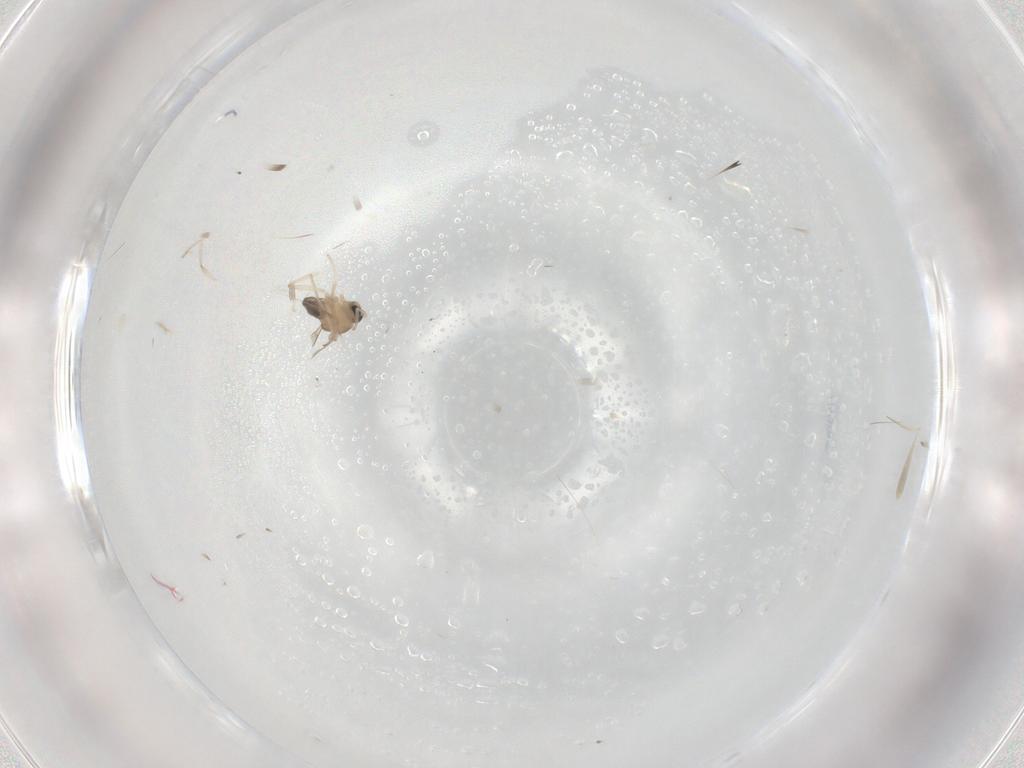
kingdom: Animalia
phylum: Arthropoda
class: Insecta
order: Diptera
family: Cecidomyiidae
